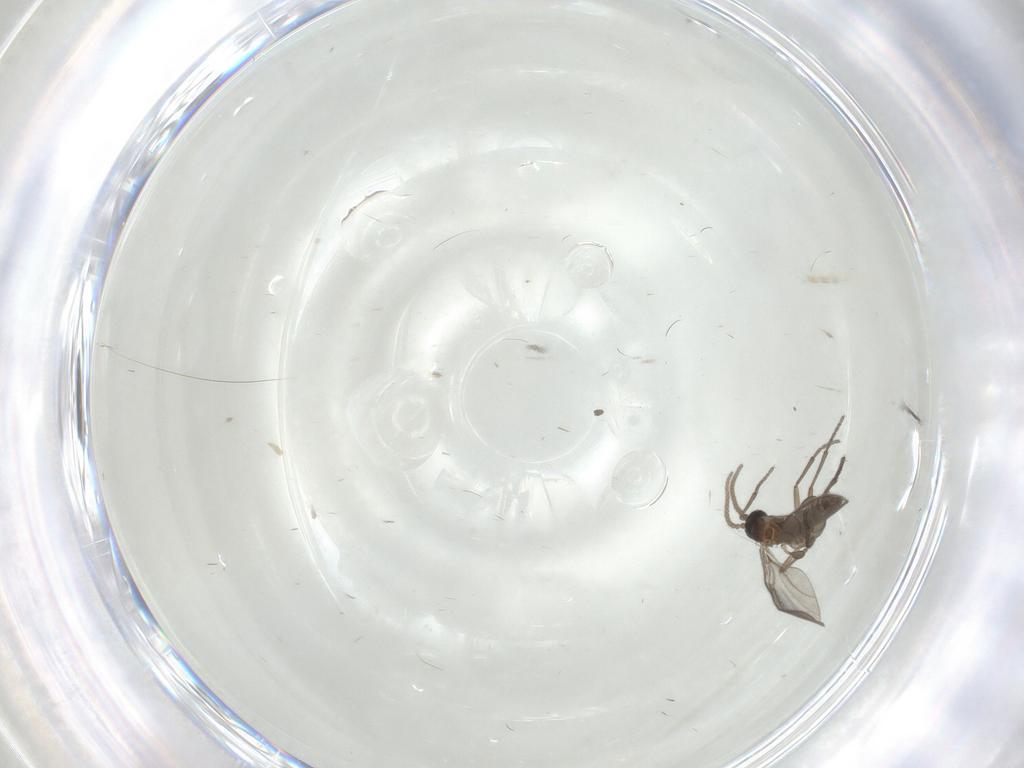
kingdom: Animalia
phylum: Arthropoda
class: Insecta
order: Diptera
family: Sciaridae
